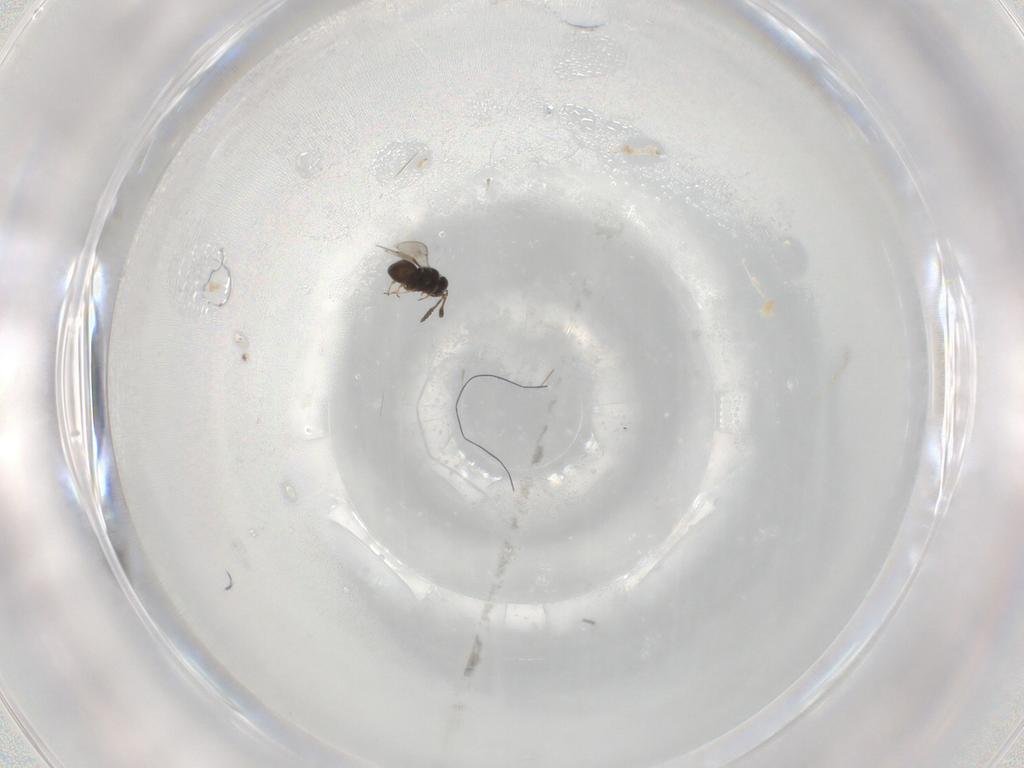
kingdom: Animalia
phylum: Arthropoda
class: Insecta
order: Hymenoptera
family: Scelionidae
